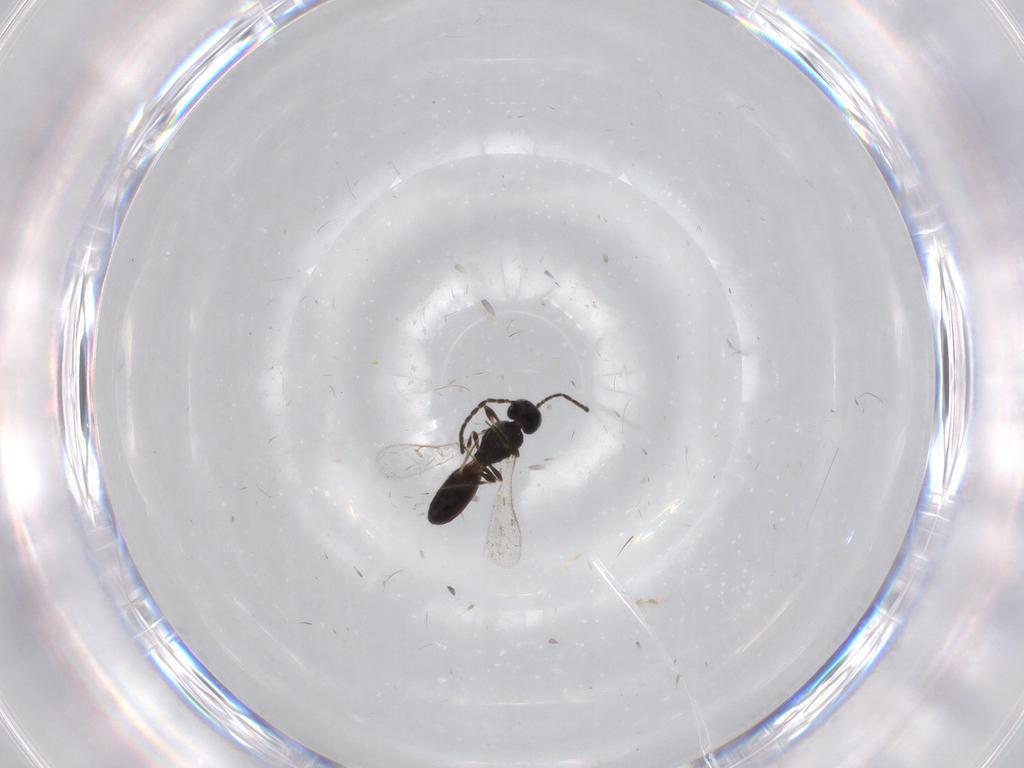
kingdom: Animalia
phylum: Arthropoda
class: Insecta
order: Hymenoptera
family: Scelionidae
